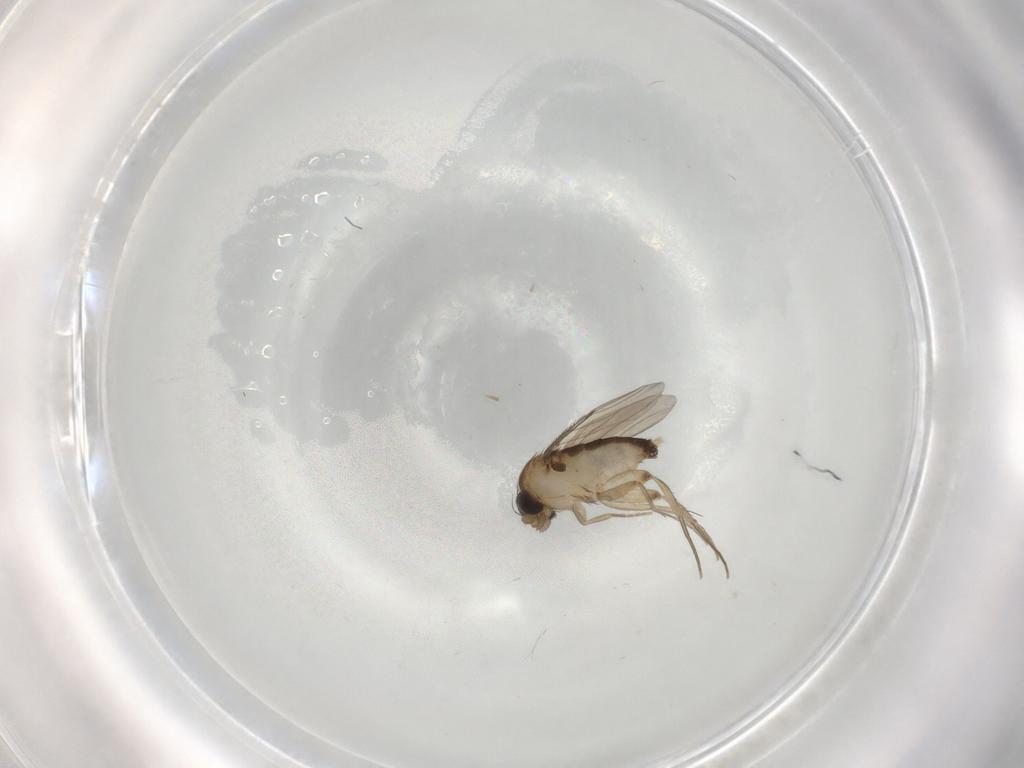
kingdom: Animalia
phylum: Arthropoda
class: Insecta
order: Diptera
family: Phoridae
